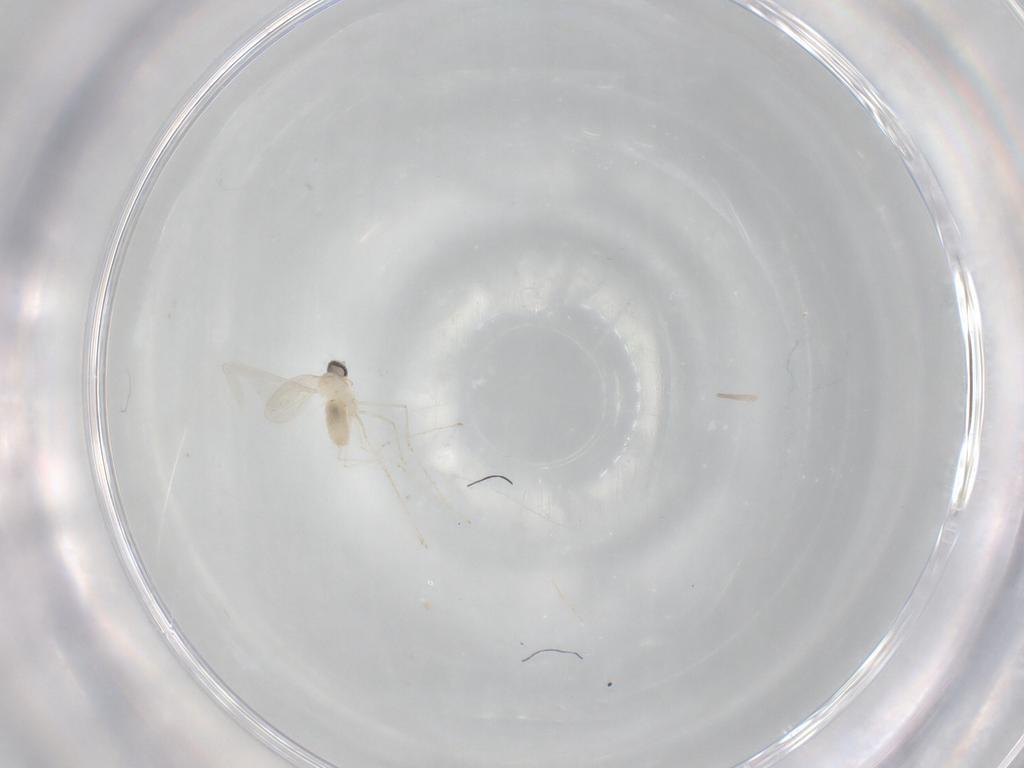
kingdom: Animalia
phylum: Arthropoda
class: Insecta
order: Diptera
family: Cecidomyiidae
